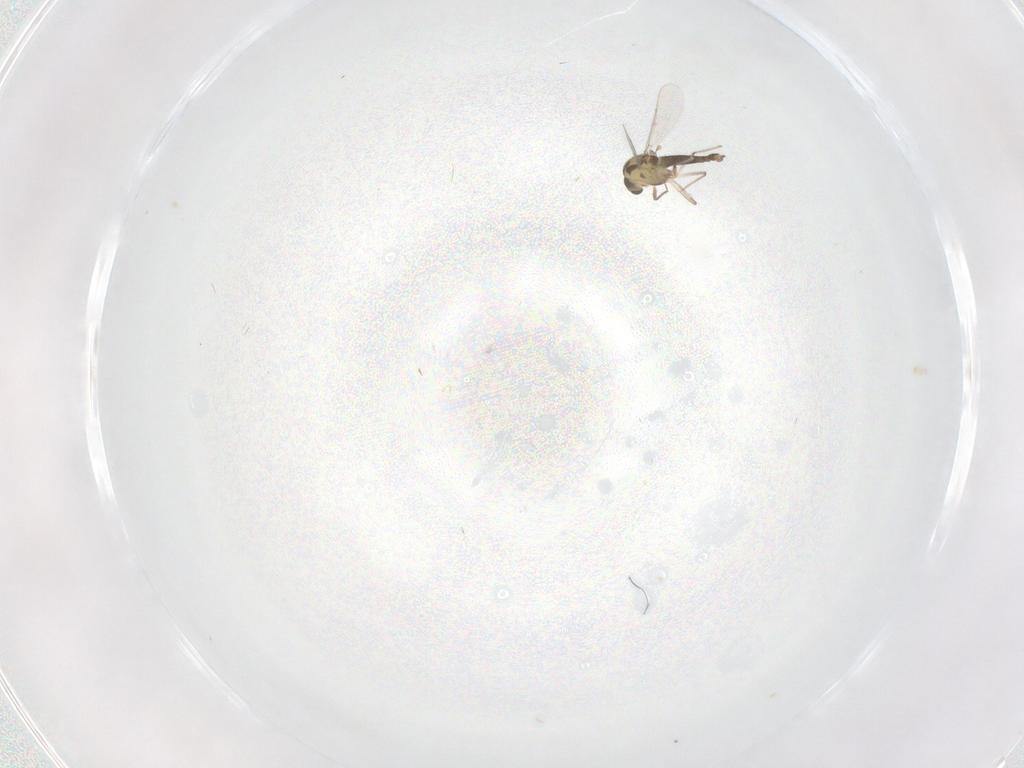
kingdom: Animalia
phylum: Arthropoda
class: Insecta
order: Diptera
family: Chironomidae
